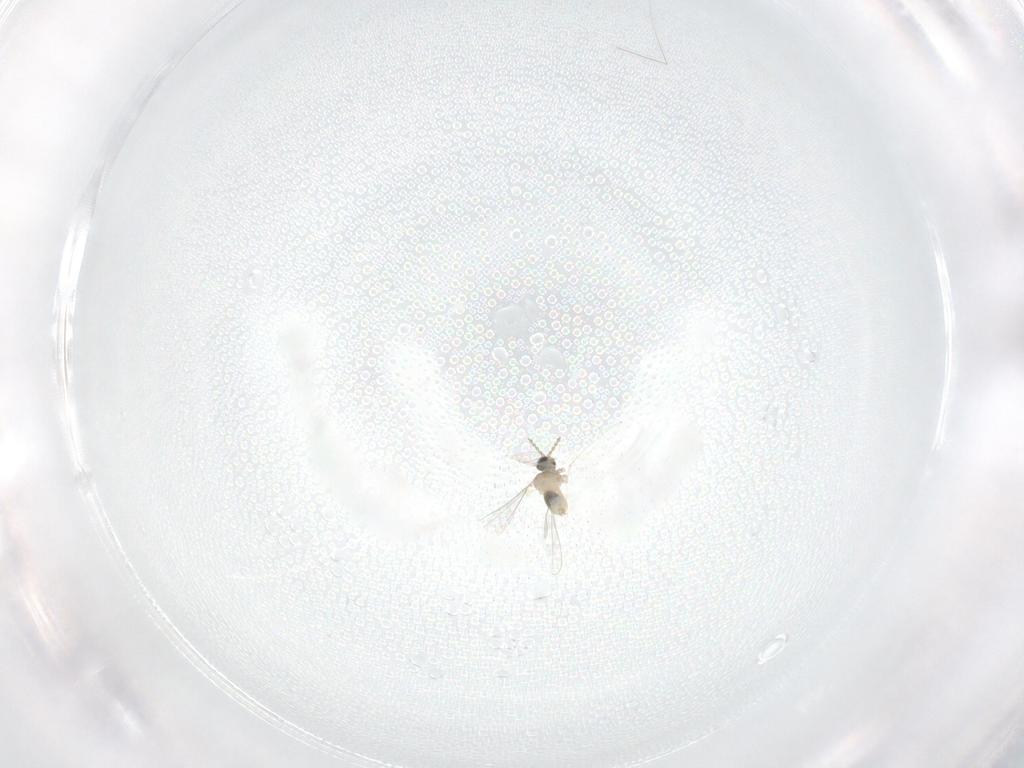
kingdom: Animalia
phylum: Arthropoda
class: Insecta
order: Diptera
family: Cecidomyiidae
